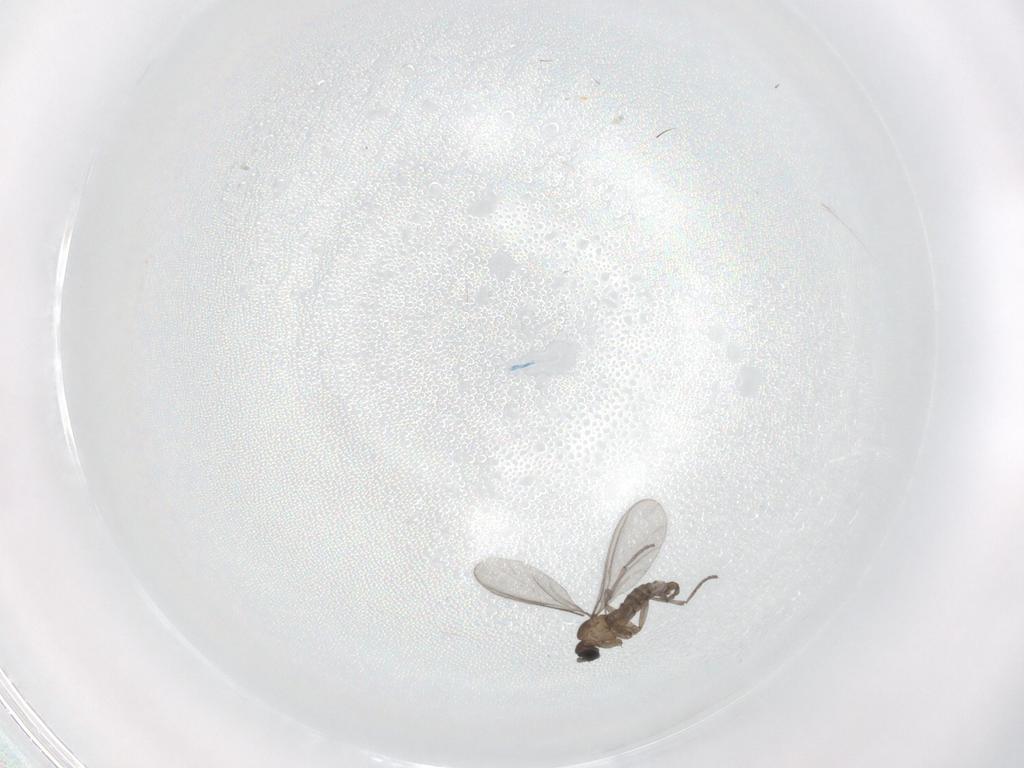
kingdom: Animalia
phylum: Arthropoda
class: Insecta
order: Diptera
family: Sciaridae
